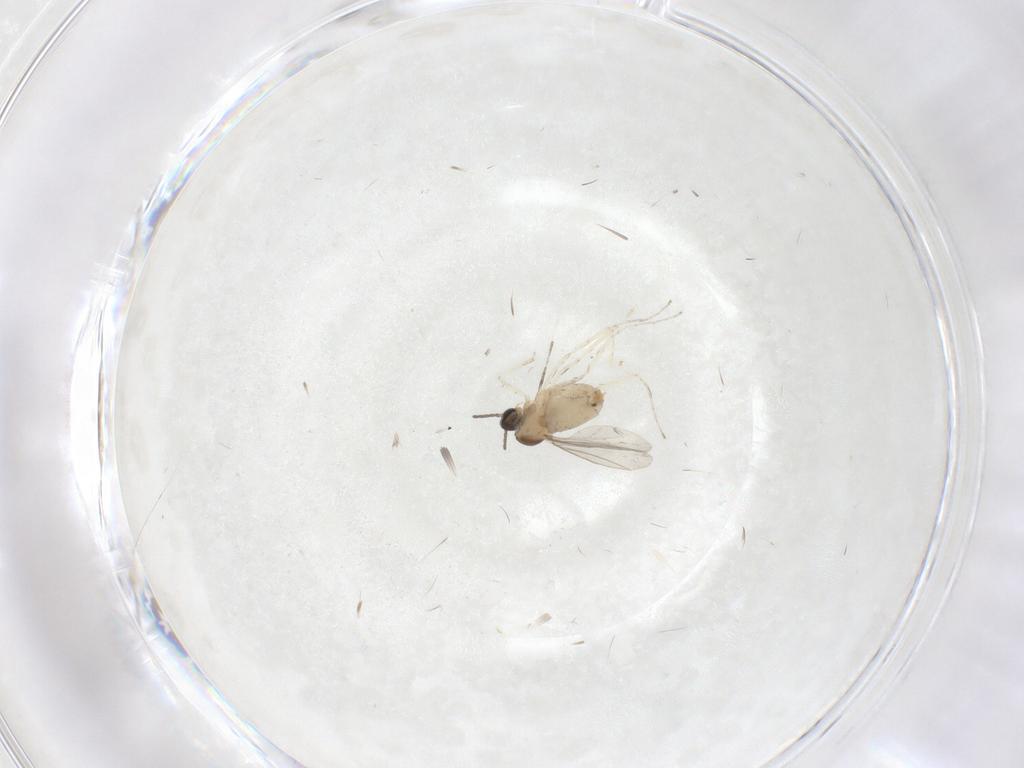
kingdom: Animalia
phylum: Arthropoda
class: Insecta
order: Diptera
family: Cecidomyiidae
